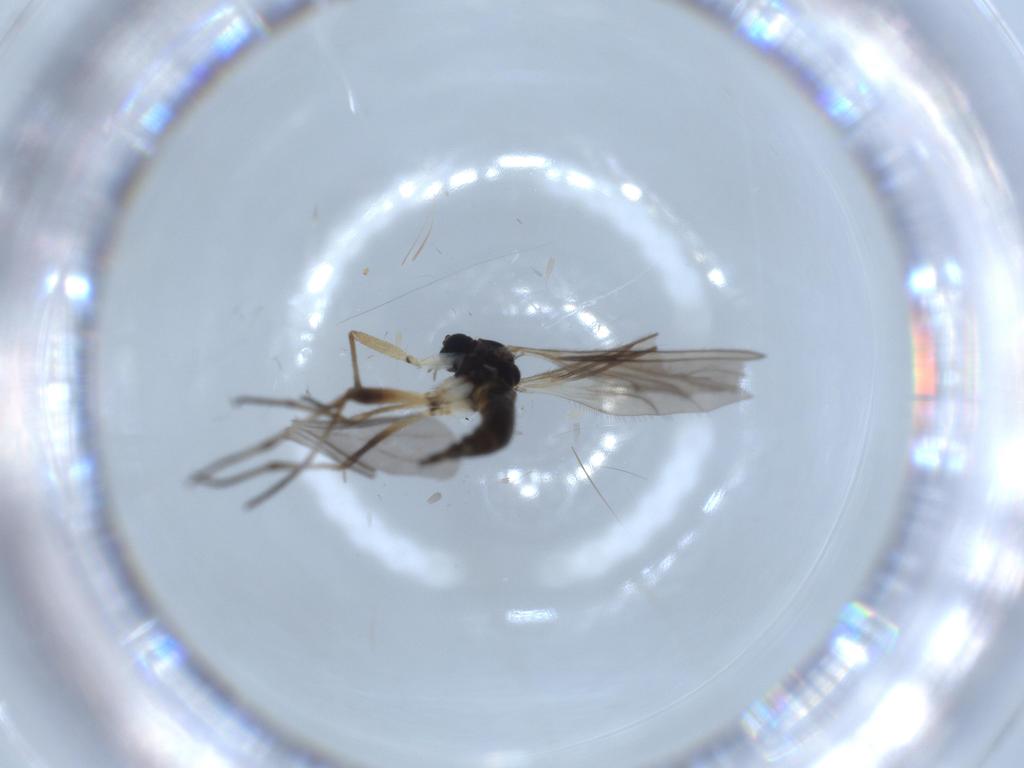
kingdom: Animalia
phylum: Arthropoda
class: Insecta
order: Diptera
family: Sciaridae
